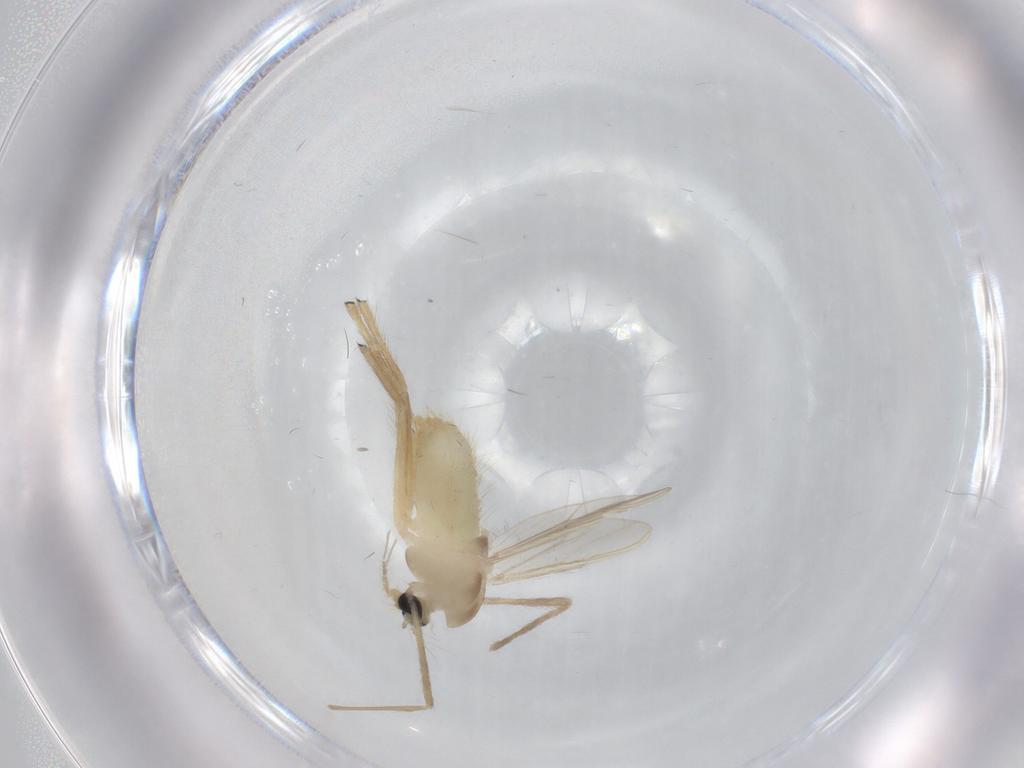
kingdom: Animalia
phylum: Arthropoda
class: Insecta
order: Diptera
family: Chironomidae
